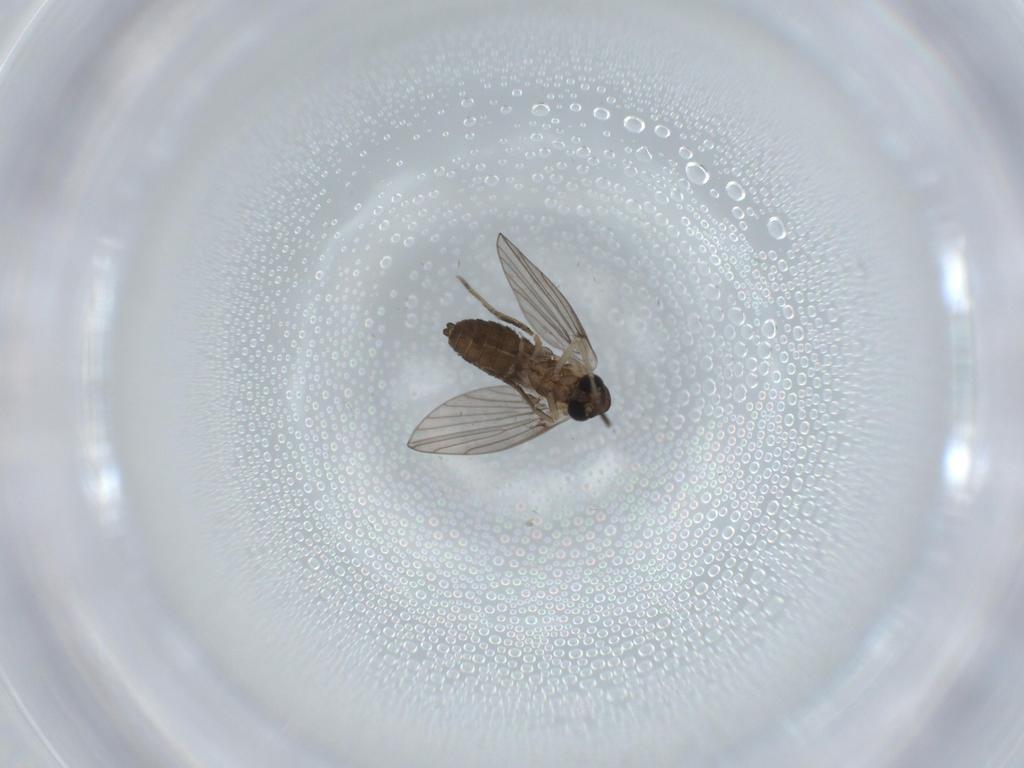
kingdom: Animalia
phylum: Arthropoda
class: Insecta
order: Diptera
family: Psychodidae
